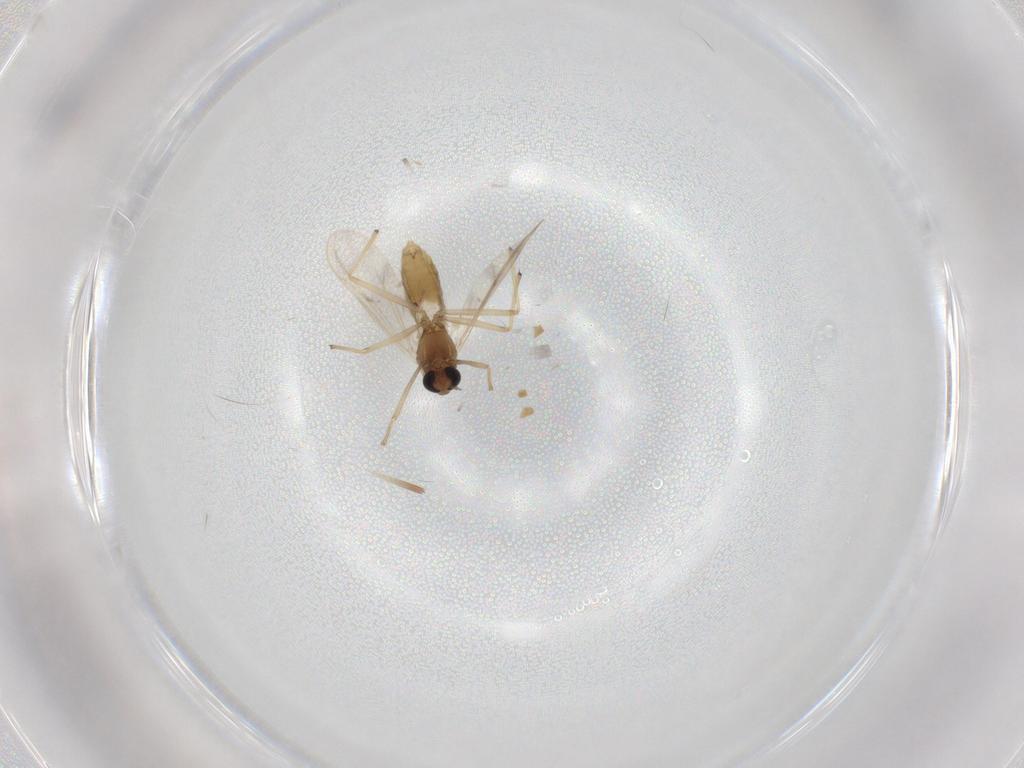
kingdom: Animalia
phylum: Arthropoda
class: Insecta
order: Diptera
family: Chironomidae
